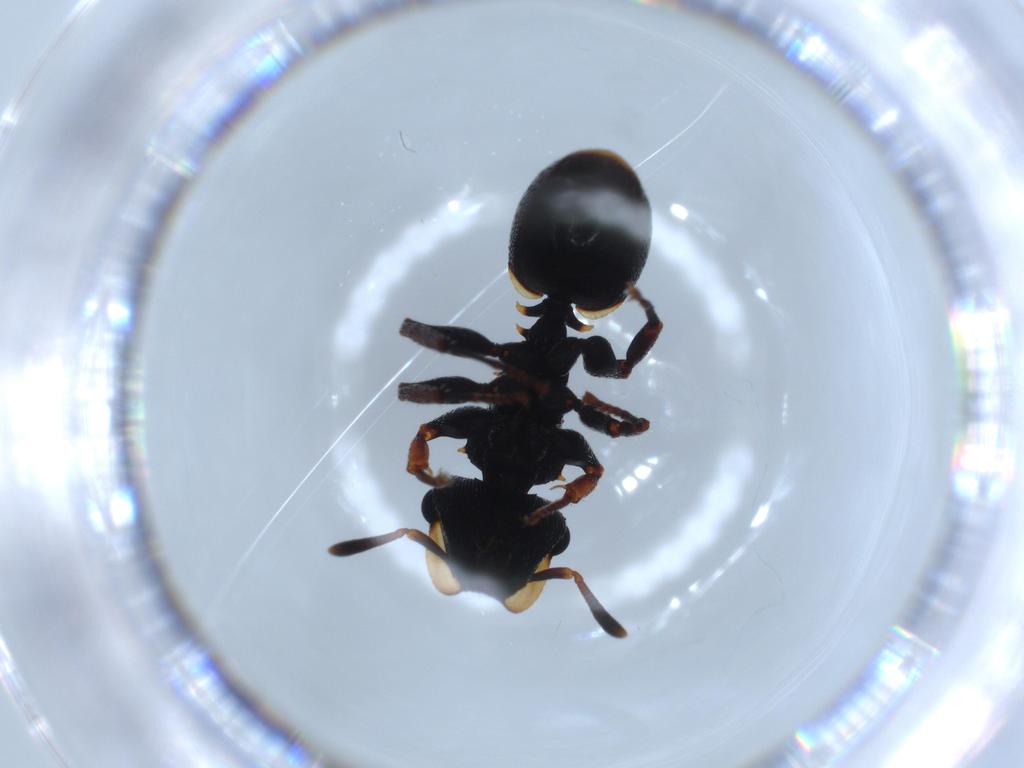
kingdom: Animalia
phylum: Arthropoda
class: Insecta
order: Hymenoptera
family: Formicidae
